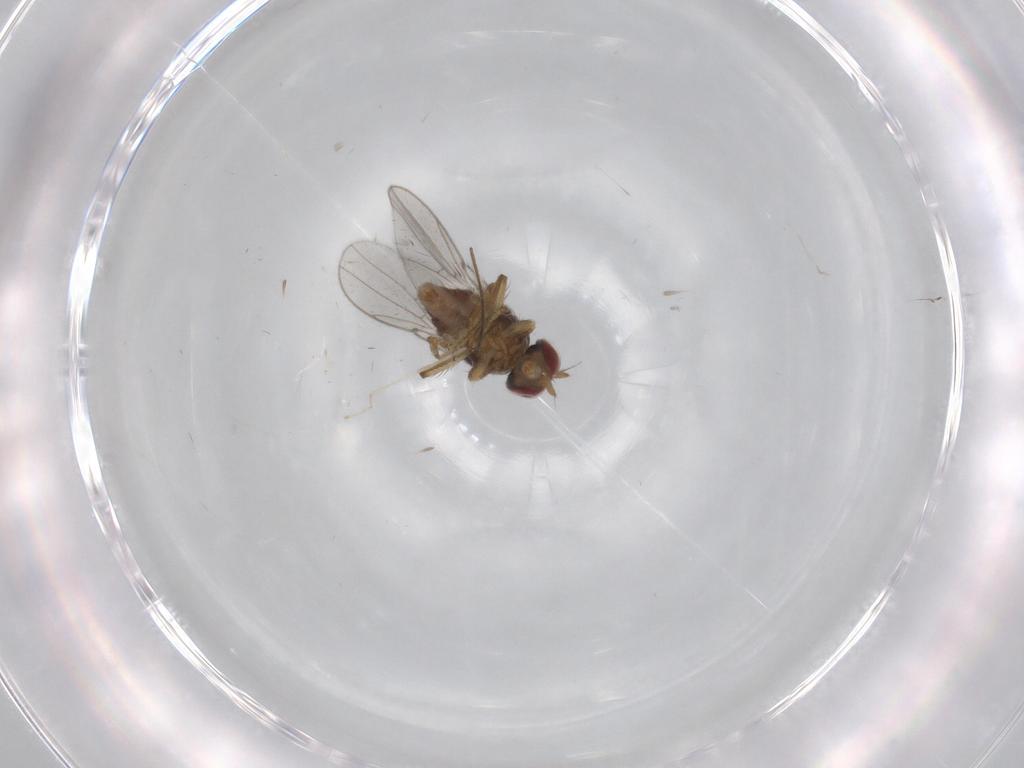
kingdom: Animalia
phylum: Arthropoda
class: Insecta
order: Diptera
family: Ephydridae
